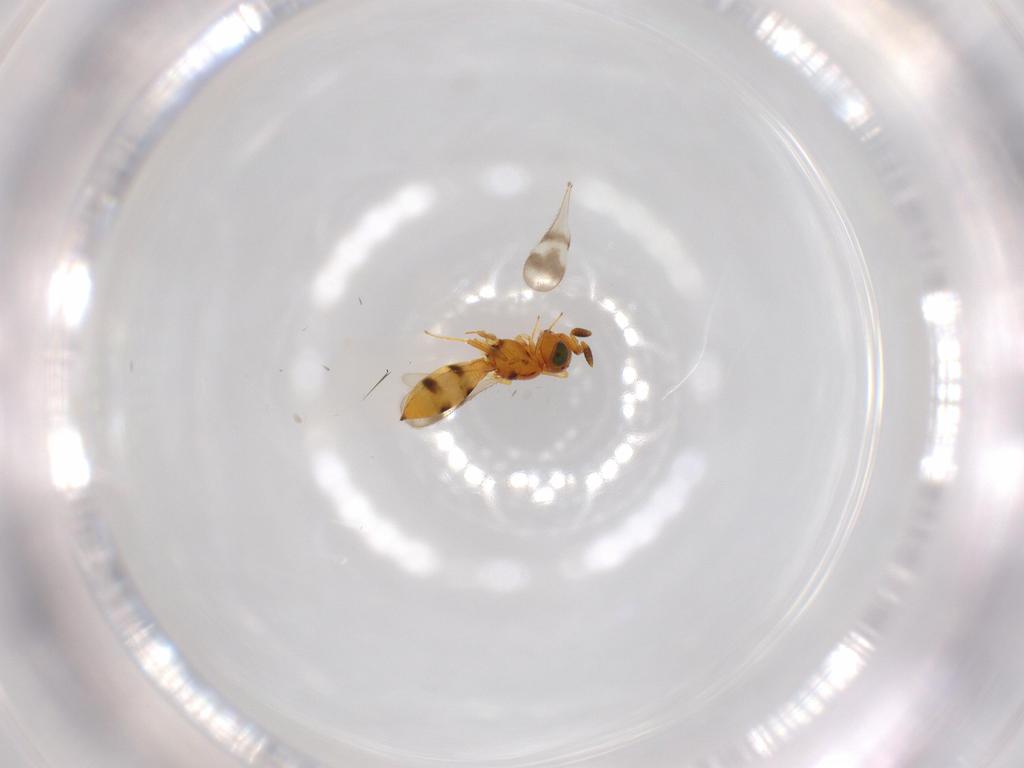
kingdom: Animalia
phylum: Arthropoda
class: Insecta
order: Hymenoptera
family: Scelionidae
